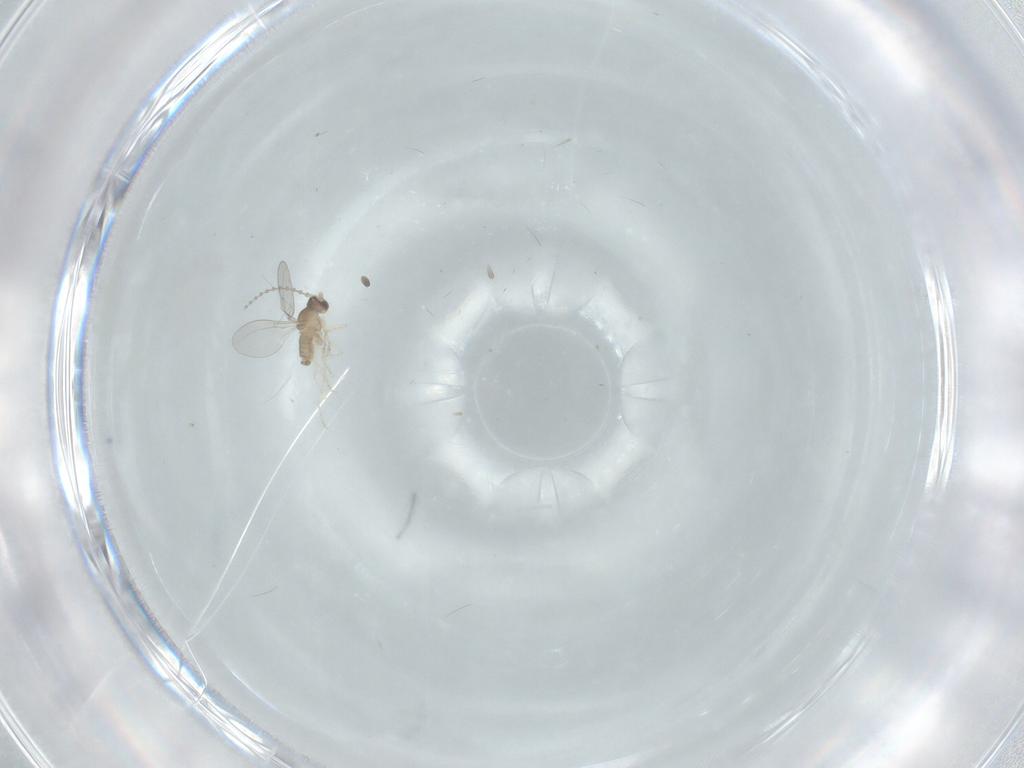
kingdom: Animalia
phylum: Arthropoda
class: Insecta
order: Diptera
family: Cecidomyiidae
